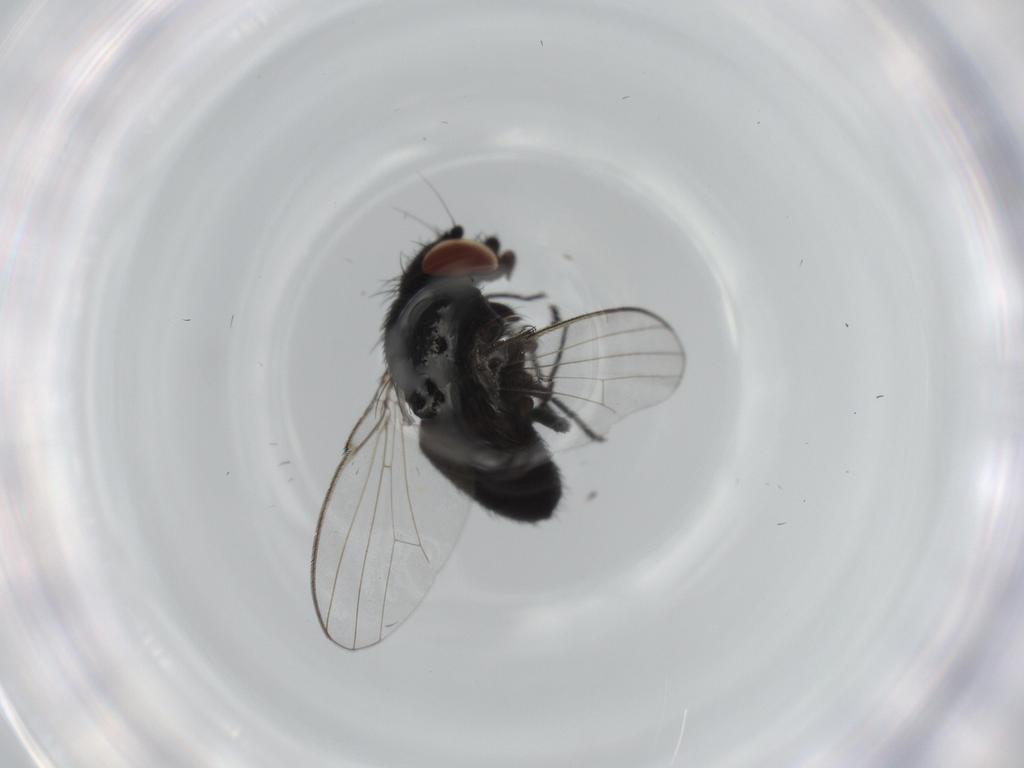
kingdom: Animalia
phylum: Arthropoda
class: Insecta
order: Diptera
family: Milichiidae
